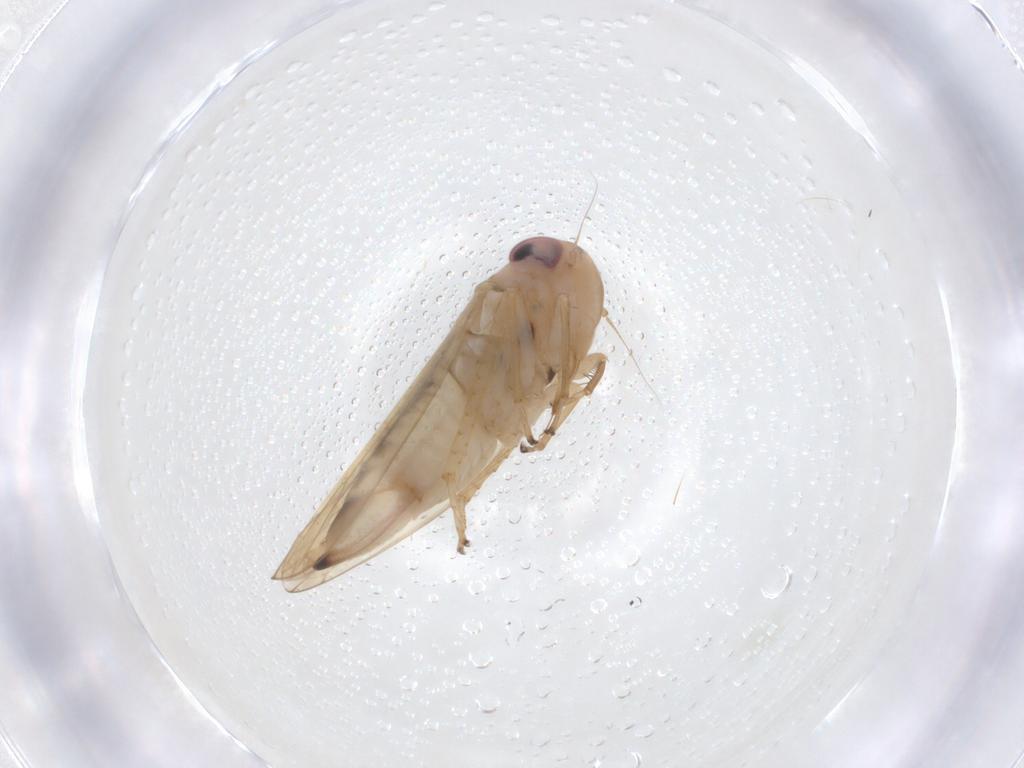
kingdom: Animalia
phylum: Arthropoda
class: Insecta
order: Hemiptera
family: Cicadellidae
